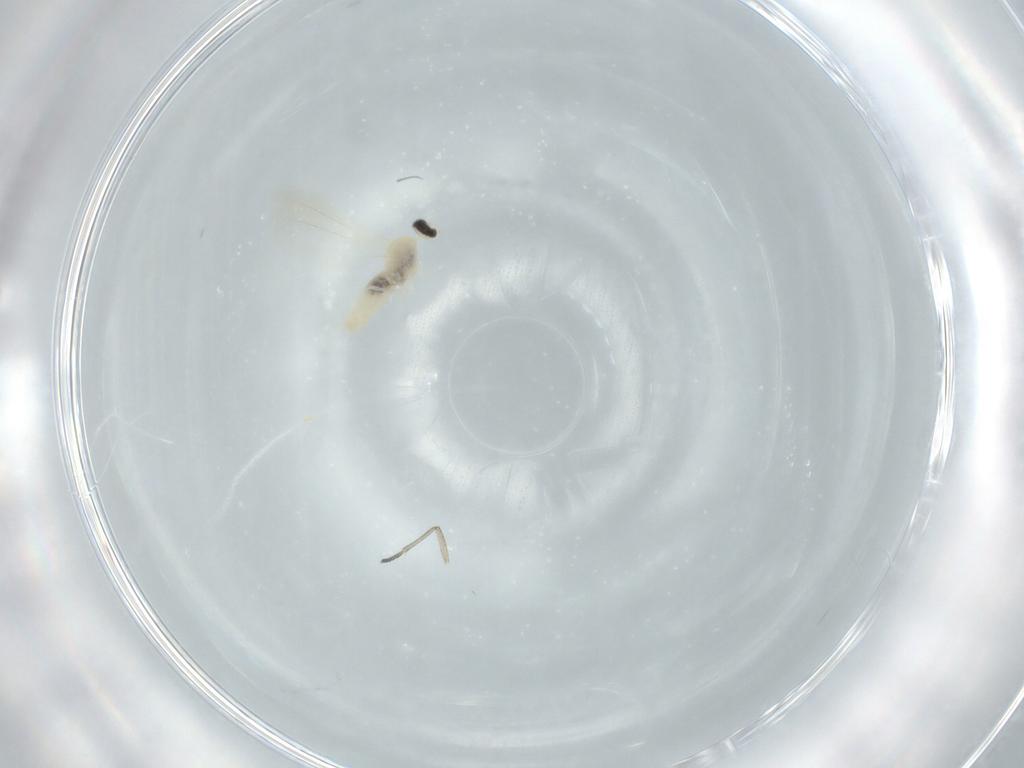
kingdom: Animalia
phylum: Arthropoda
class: Insecta
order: Diptera
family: Cecidomyiidae
